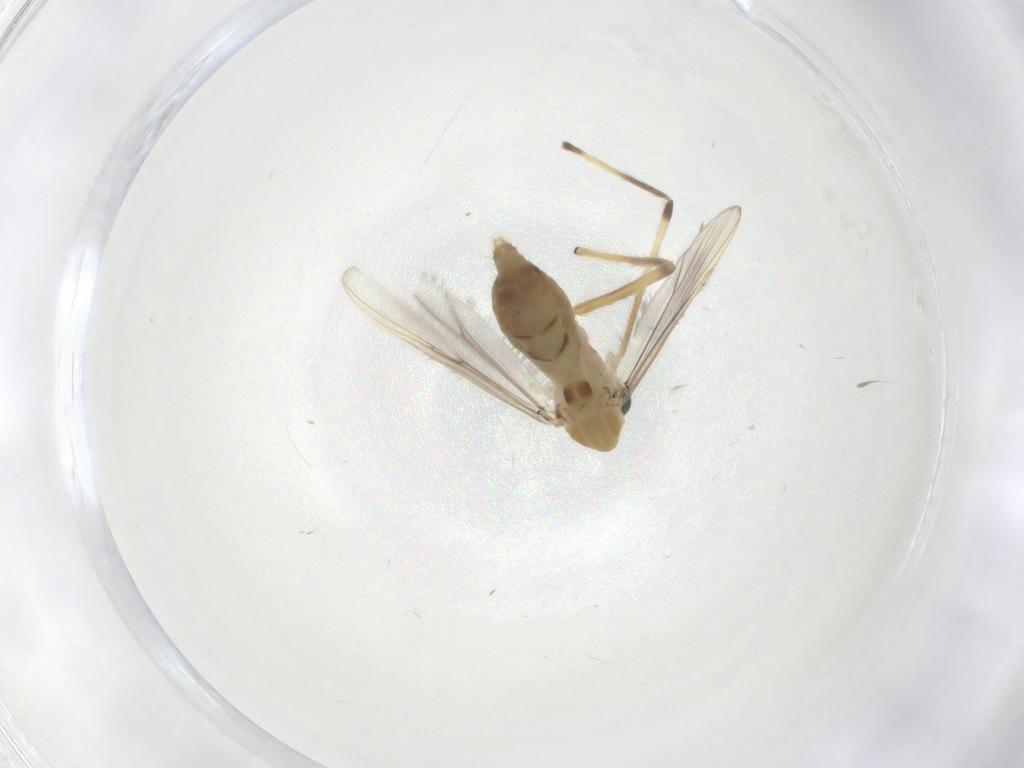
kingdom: Animalia
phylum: Arthropoda
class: Insecta
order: Diptera
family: Chironomidae
